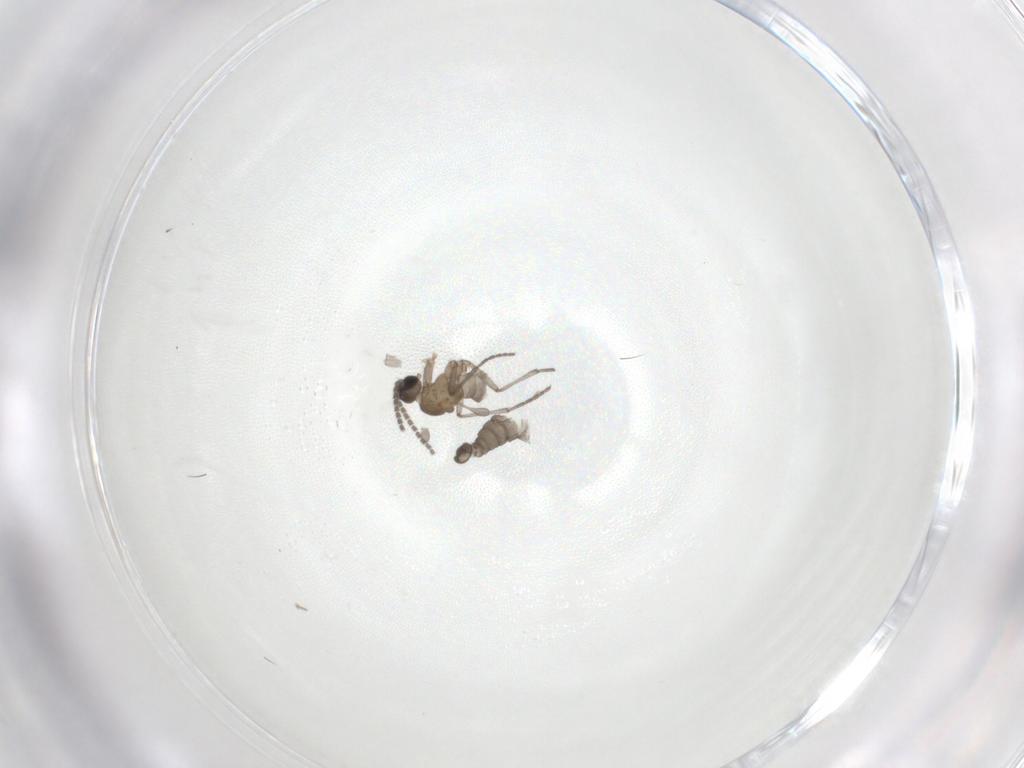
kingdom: Animalia
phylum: Arthropoda
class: Insecta
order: Diptera
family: Sciaridae
